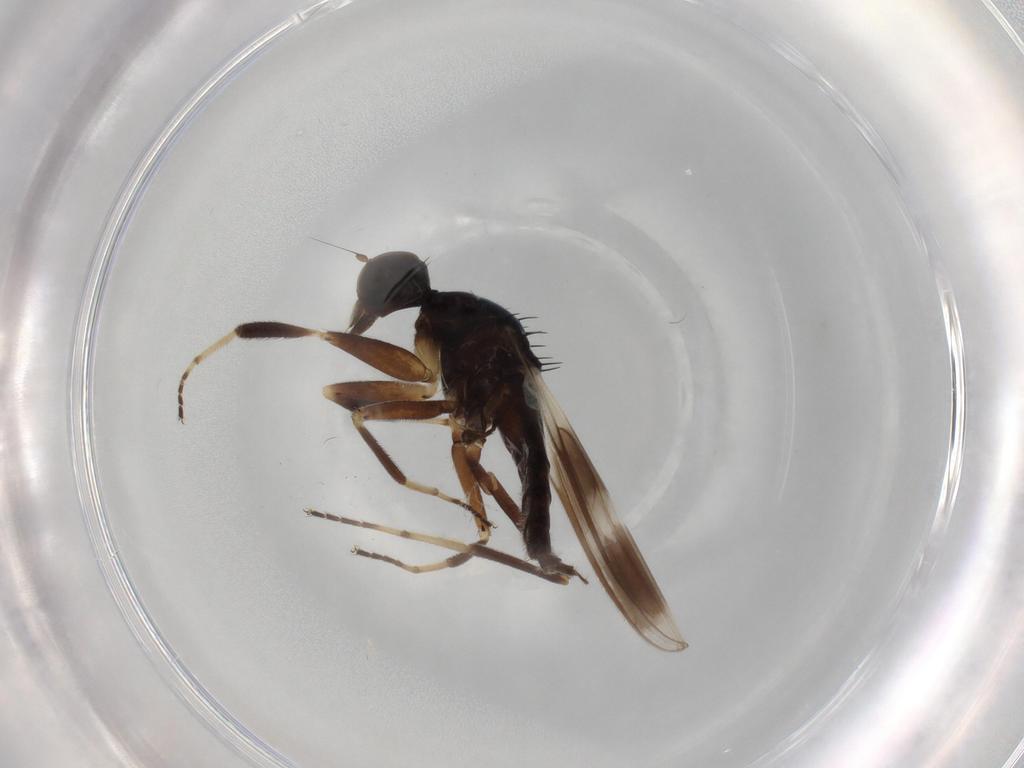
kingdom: Animalia
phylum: Arthropoda
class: Insecta
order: Diptera
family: Hybotidae
